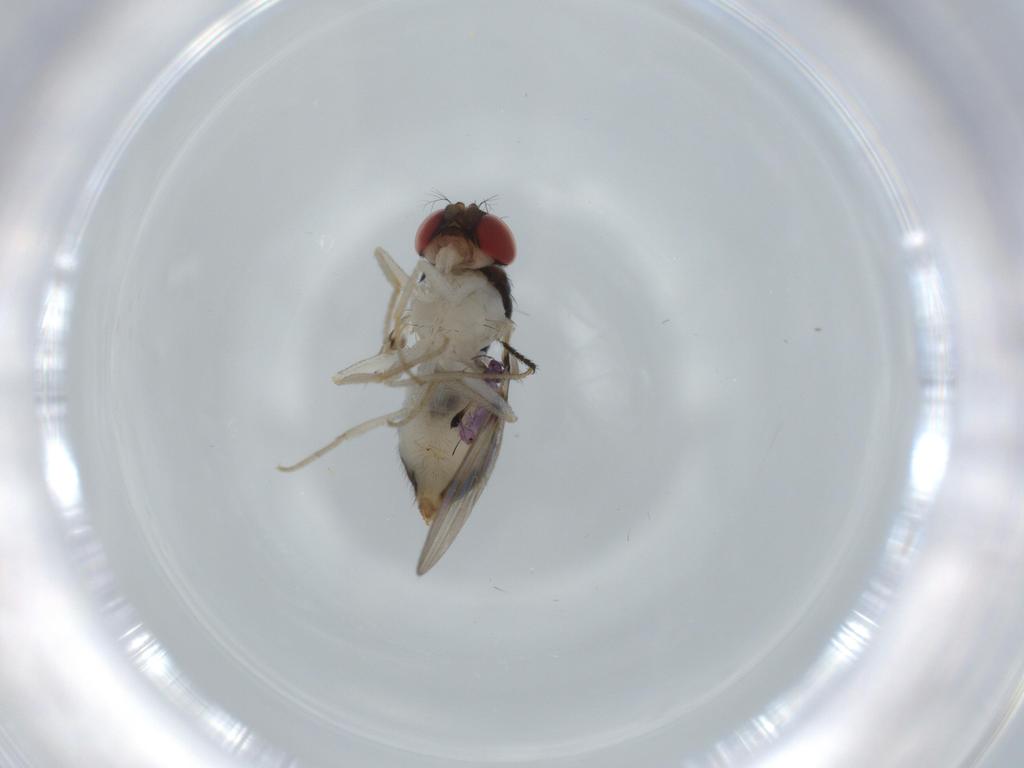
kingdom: Animalia
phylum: Arthropoda
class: Insecta
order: Diptera
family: Drosophilidae
